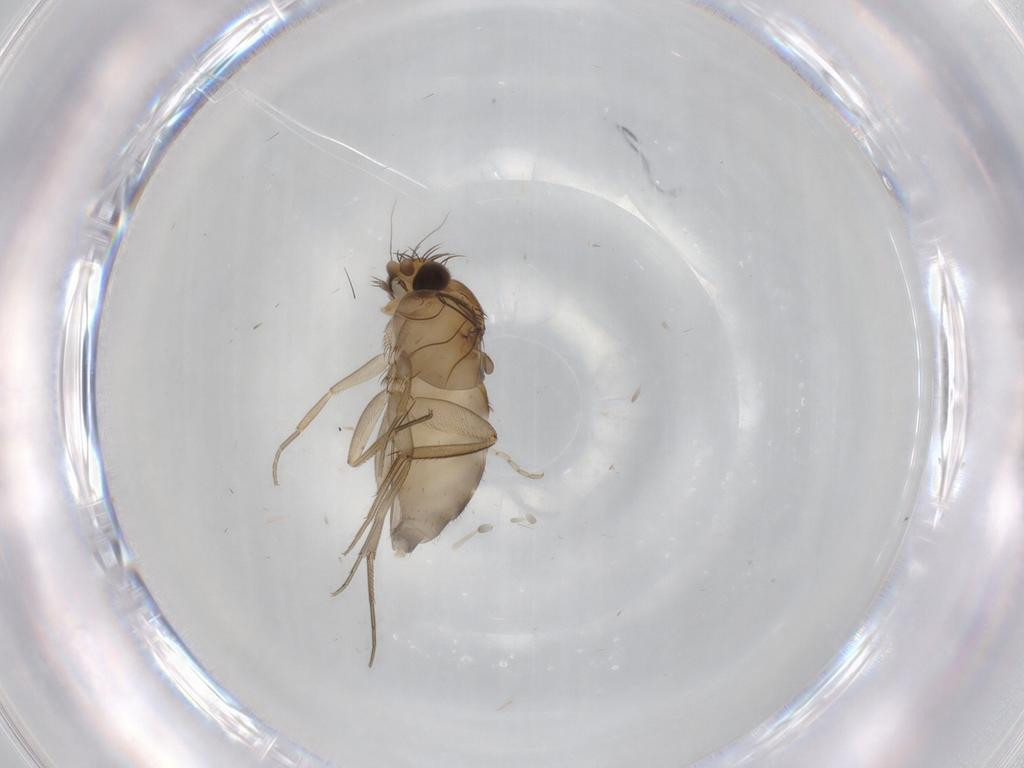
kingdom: Animalia
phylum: Arthropoda
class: Insecta
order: Diptera
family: Phoridae
